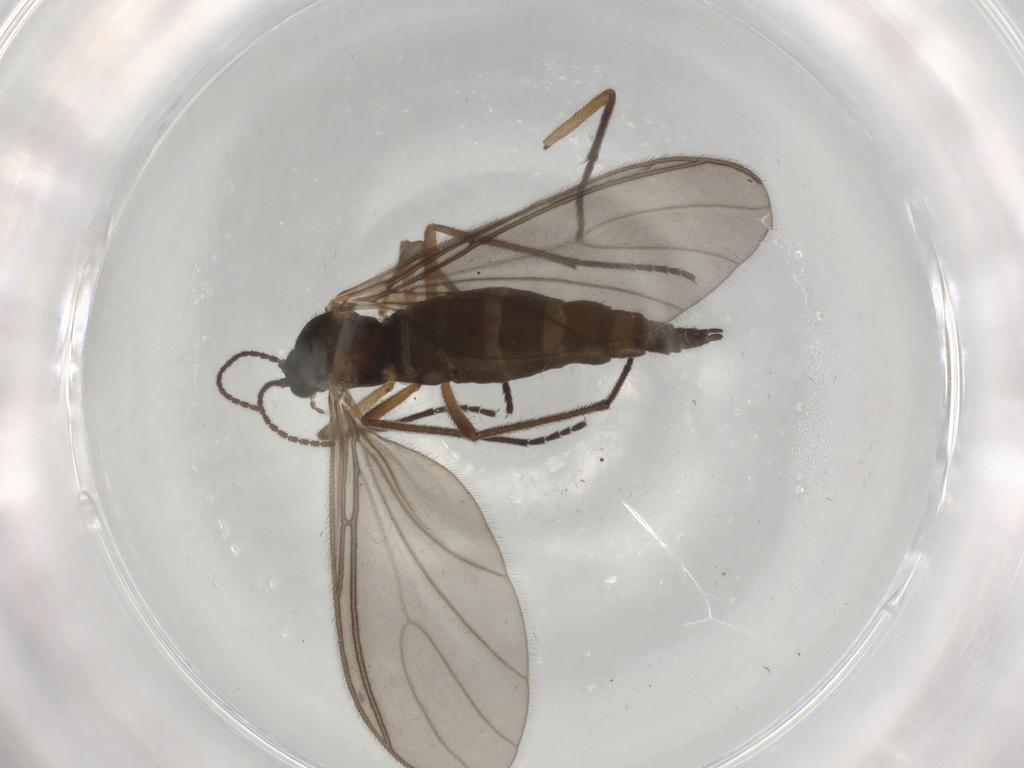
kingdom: Animalia
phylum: Arthropoda
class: Insecta
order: Diptera
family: Sciaridae
